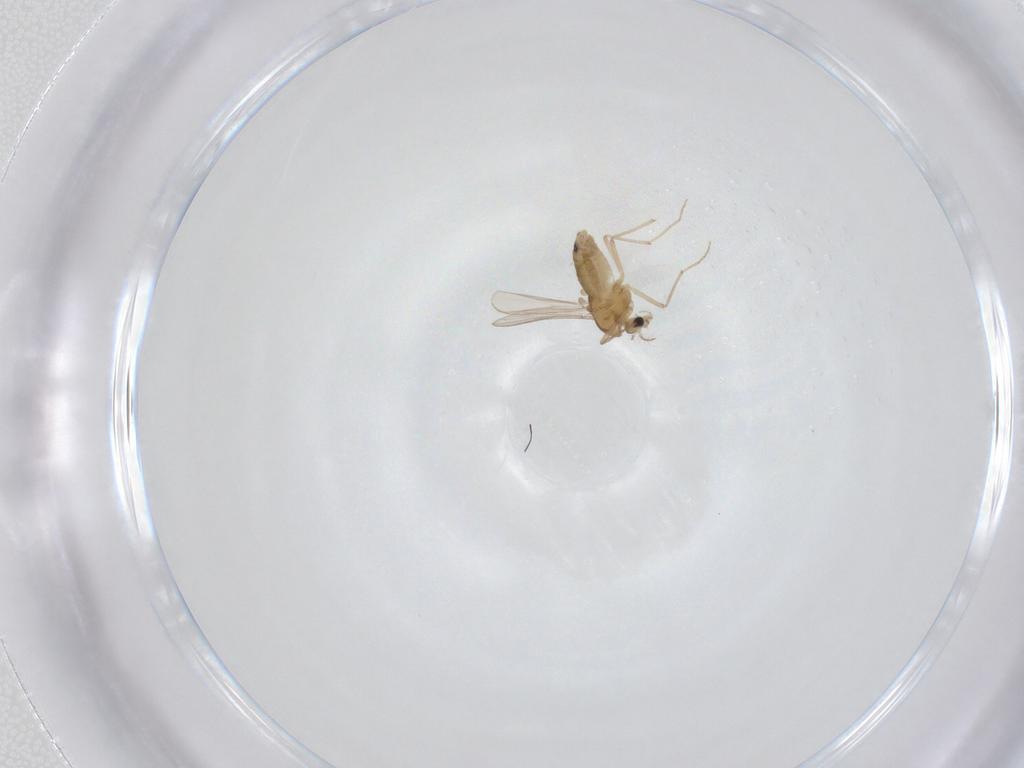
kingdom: Animalia
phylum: Arthropoda
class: Insecta
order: Diptera
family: Chironomidae
